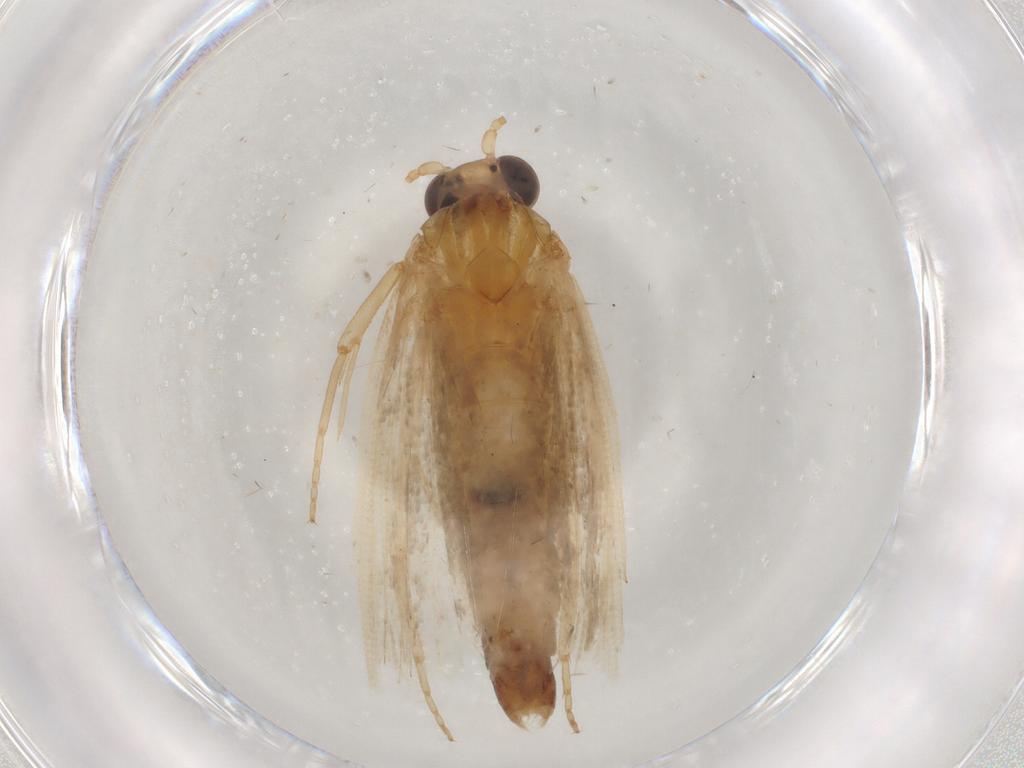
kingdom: Animalia
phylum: Arthropoda
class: Insecta
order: Lepidoptera
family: Tortricidae
